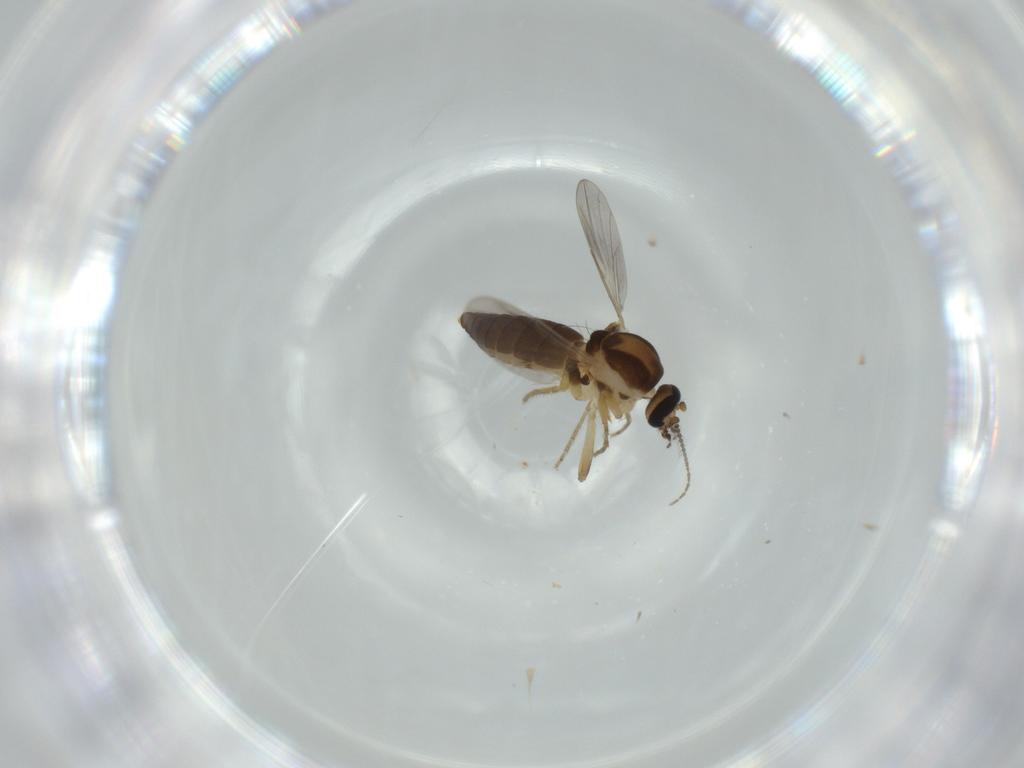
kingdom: Animalia
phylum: Arthropoda
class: Insecta
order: Diptera
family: Ceratopogonidae
